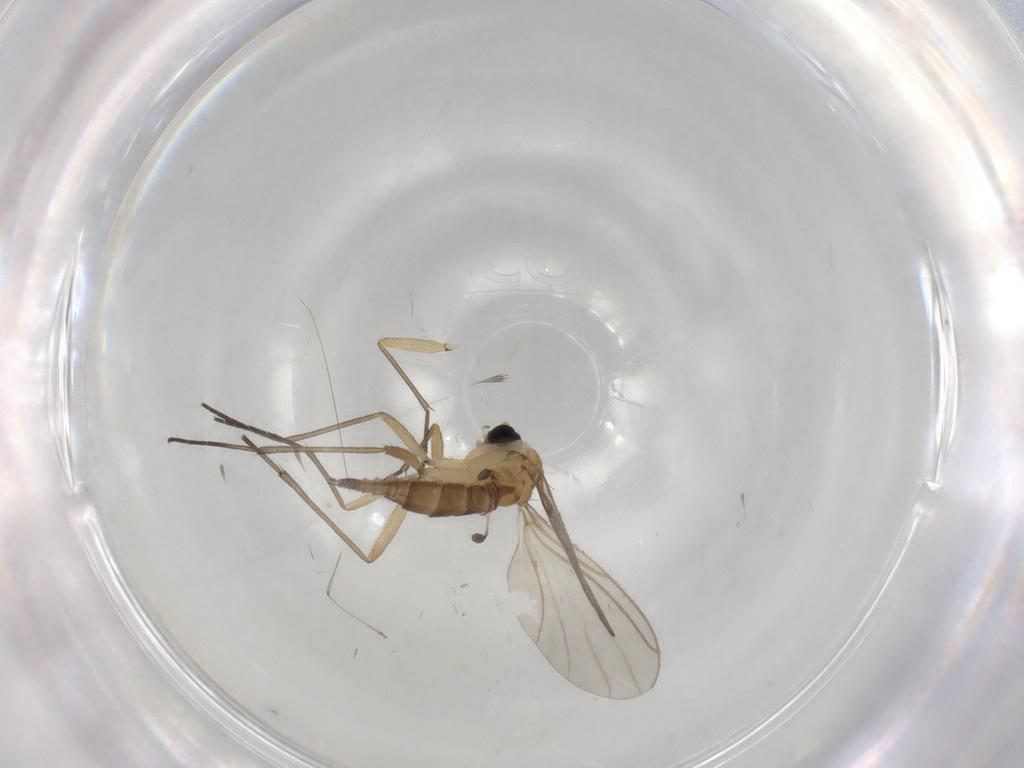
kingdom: Animalia
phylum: Arthropoda
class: Insecta
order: Diptera
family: Sciaridae
